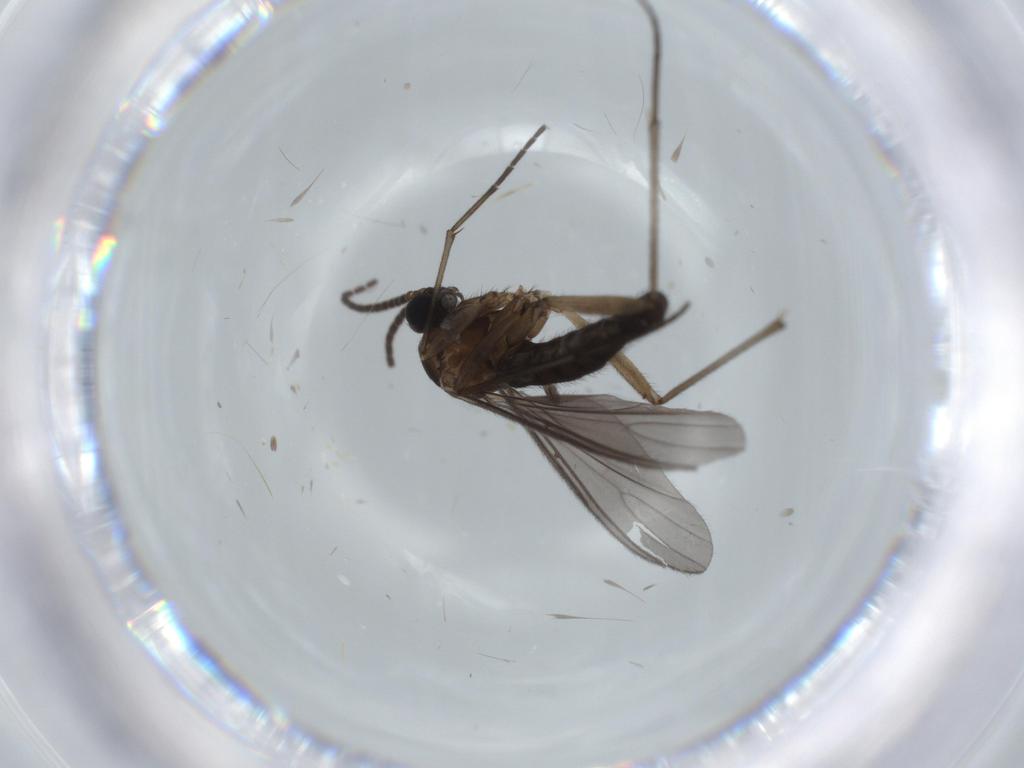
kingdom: Animalia
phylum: Arthropoda
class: Insecta
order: Diptera
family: Sciaridae
